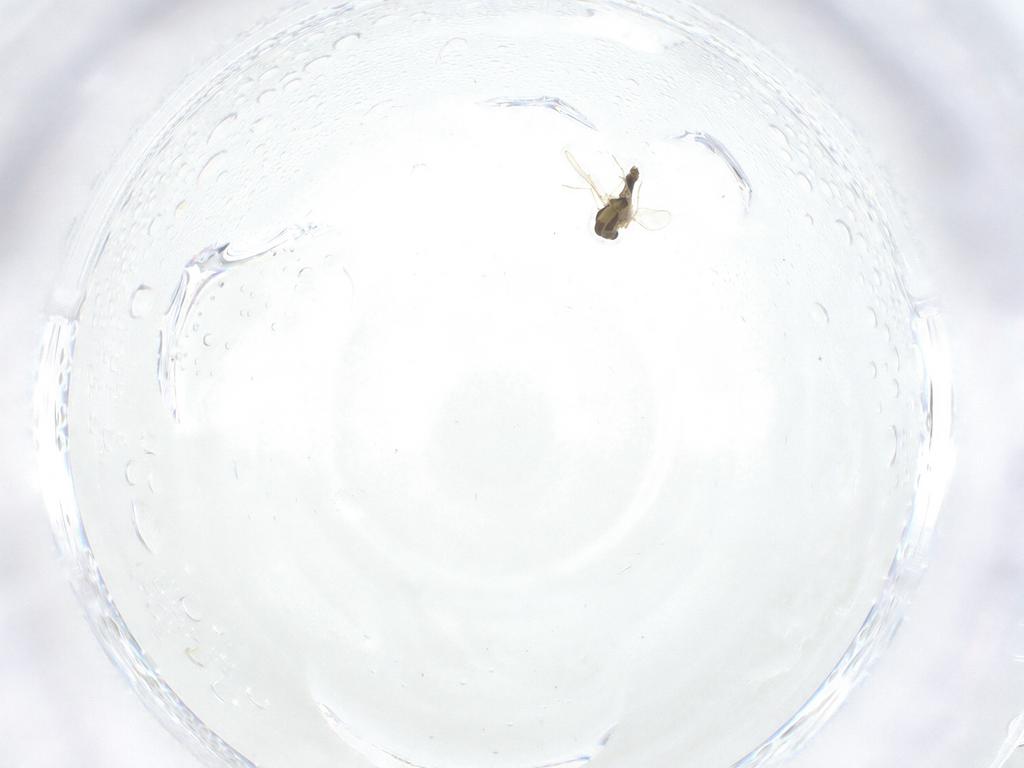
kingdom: Animalia
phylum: Arthropoda
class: Insecta
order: Diptera
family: Chironomidae
